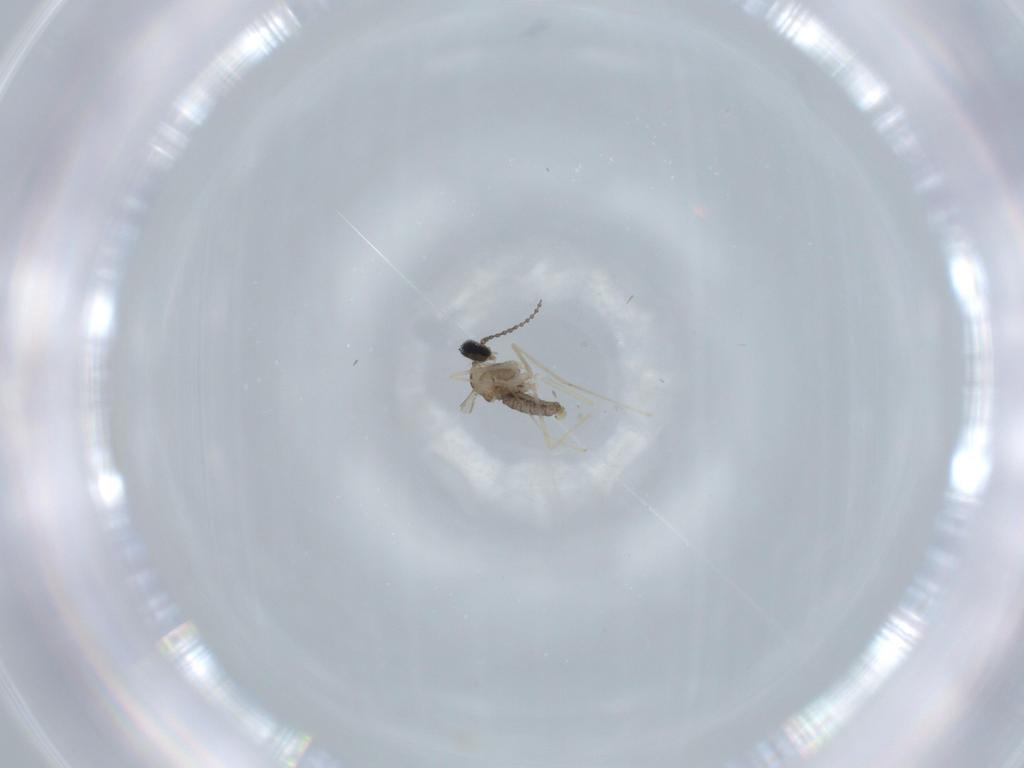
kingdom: Animalia
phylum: Arthropoda
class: Insecta
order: Diptera
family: Cecidomyiidae
